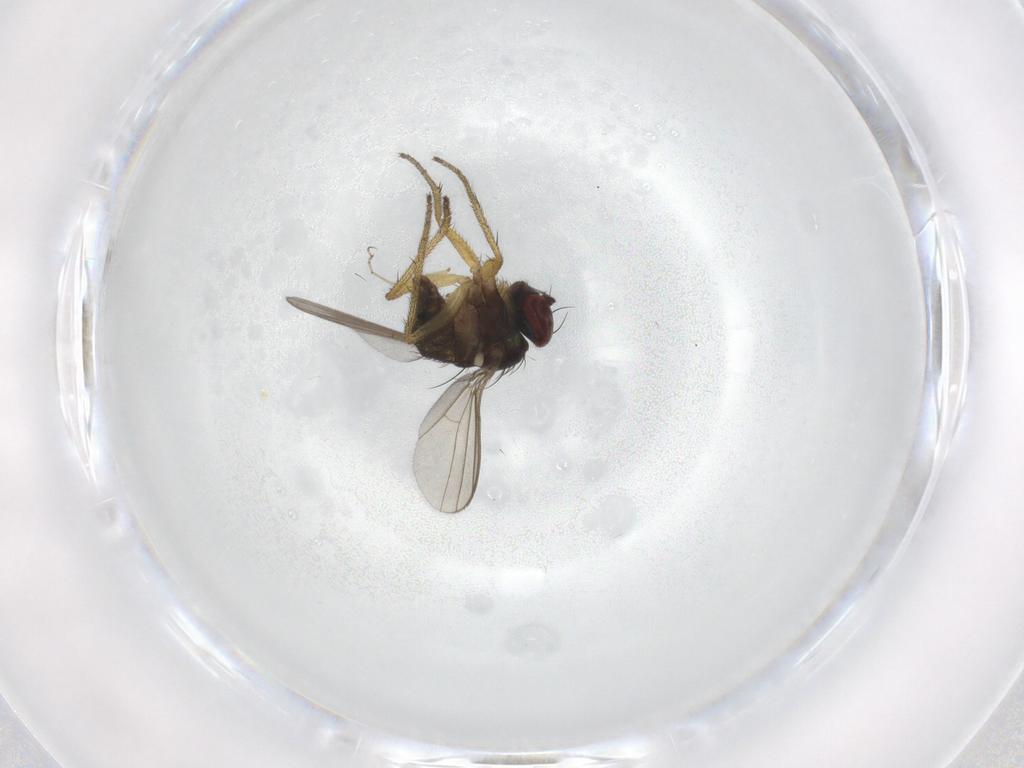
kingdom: Animalia
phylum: Arthropoda
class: Insecta
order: Diptera
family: Dolichopodidae
